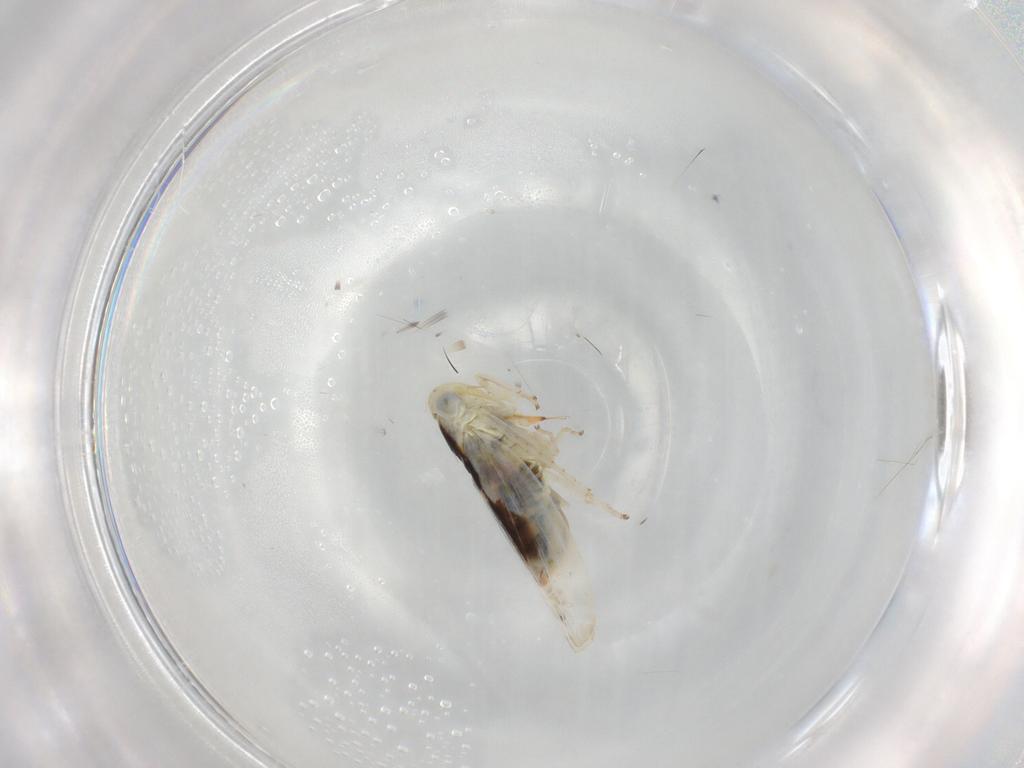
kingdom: Animalia
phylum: Arthropoda
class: Insecta
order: Hemiptera
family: Cicadellidae
